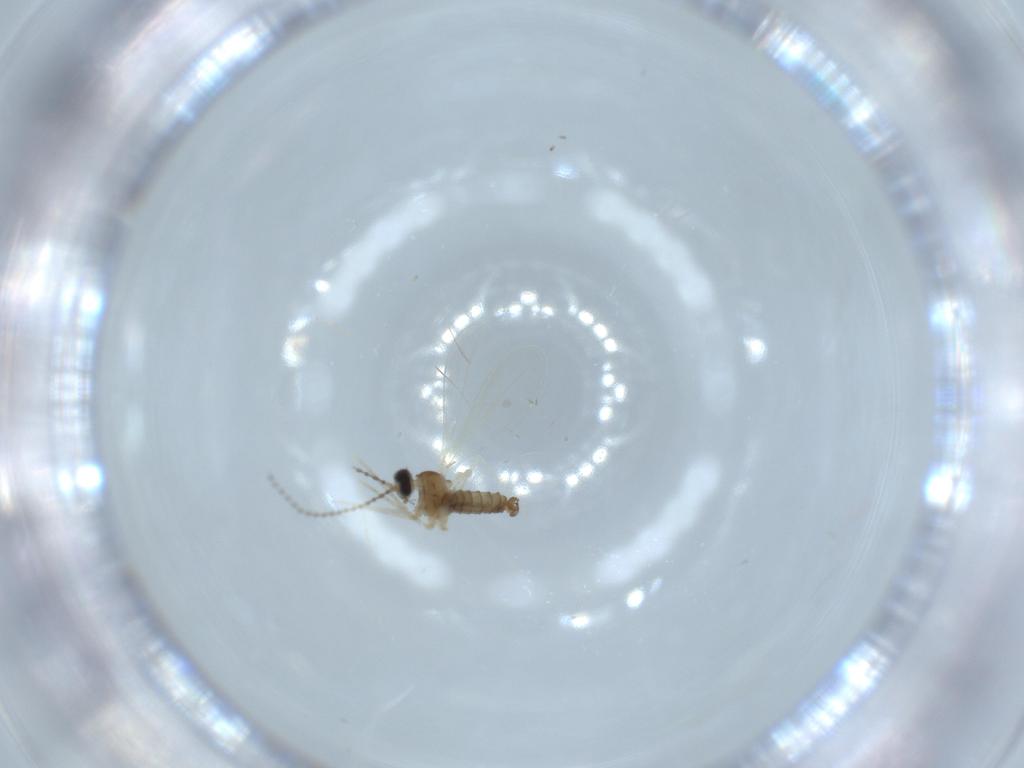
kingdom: Animalia
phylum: Arthropoda
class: Insecta
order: Diptera
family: Cecidomyiidae
